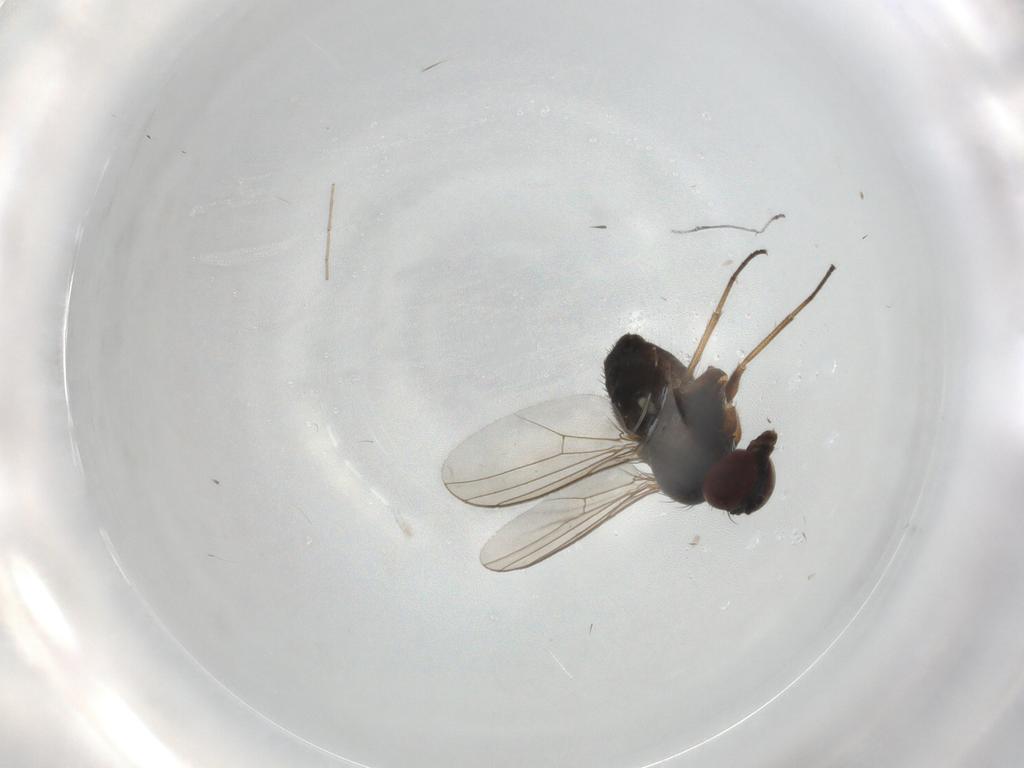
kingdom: Animalia
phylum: Arthropoda
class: Insecta
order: Diptera
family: Dolichopodidae
